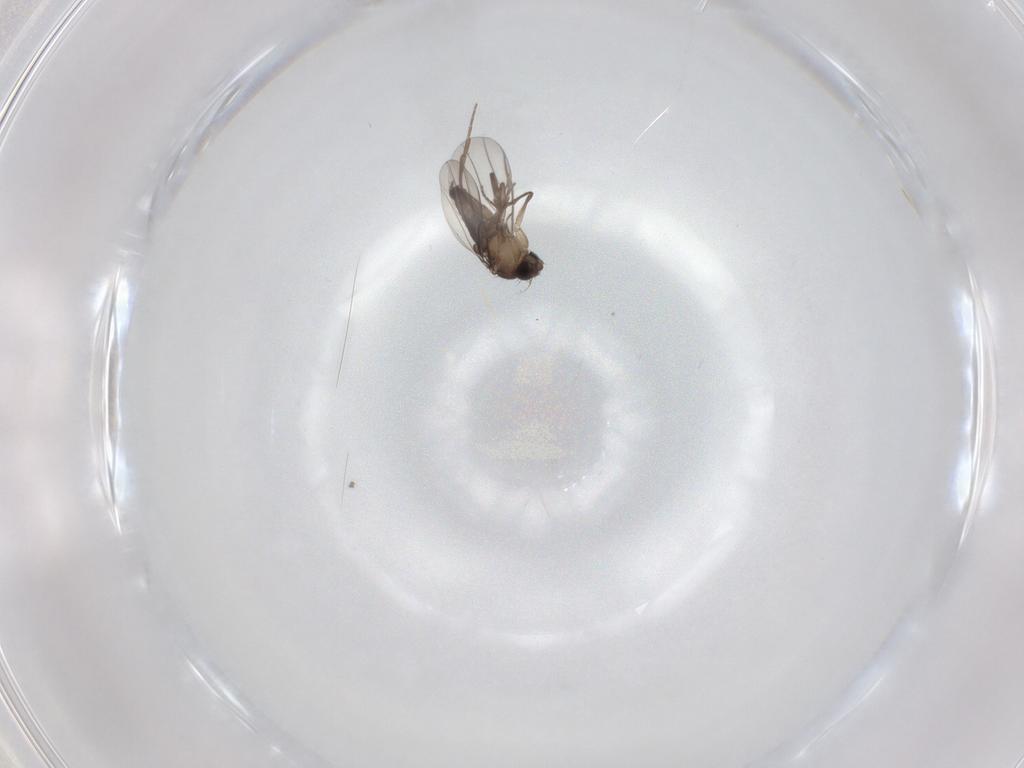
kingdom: Animalia
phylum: Arthropoda
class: Insecta
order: Diptera
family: Phoridae
